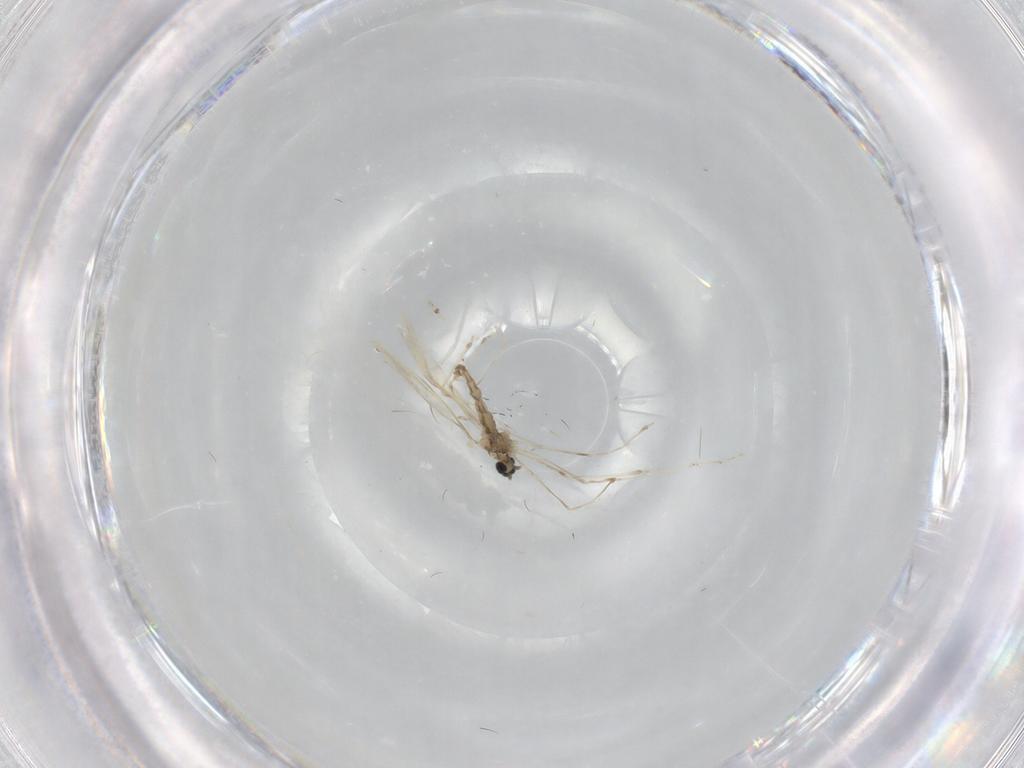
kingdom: Animalia
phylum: Arthropoda
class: Insecta
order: Diptera
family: Cecidomyiidae
